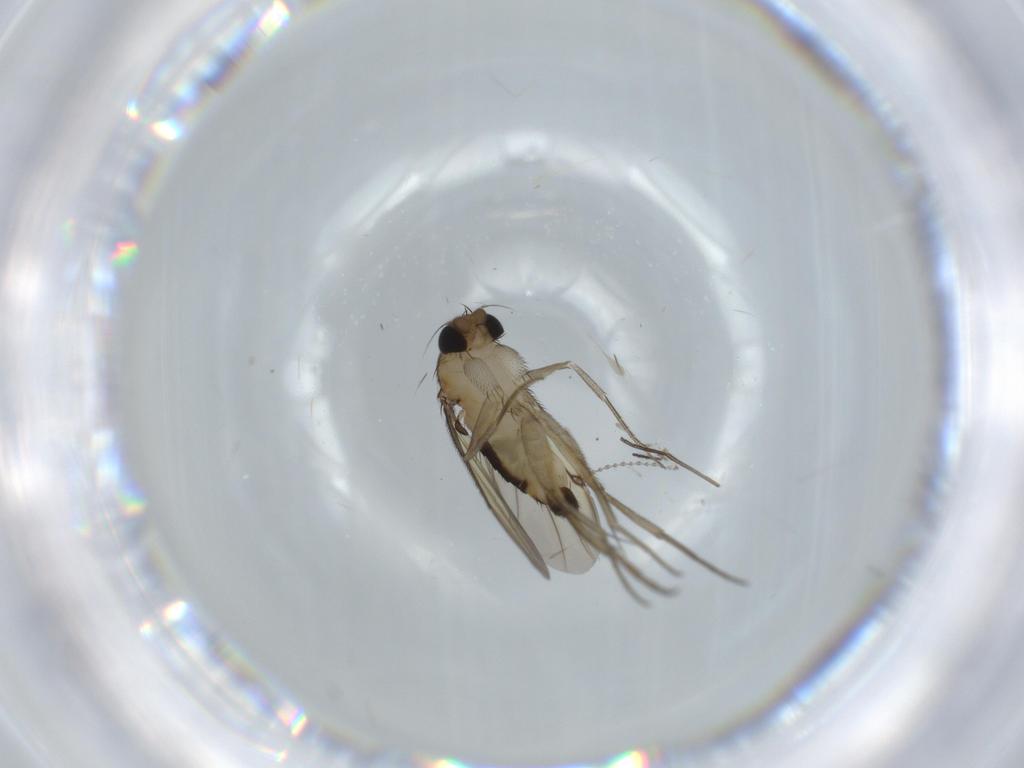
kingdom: Animalia
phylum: Arthropoda
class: Insecta
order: Diptera
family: Sciaridae
